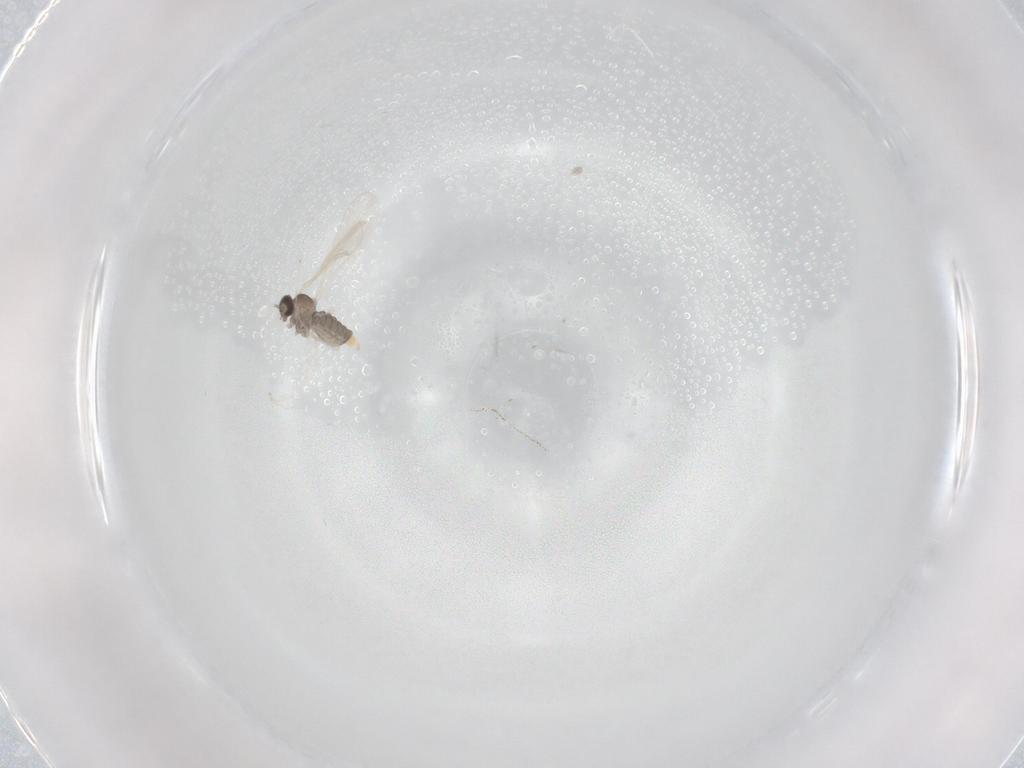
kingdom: Animalia
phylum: Arthropoda
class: Insecta
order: Diptera
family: Cecidomyiidae
